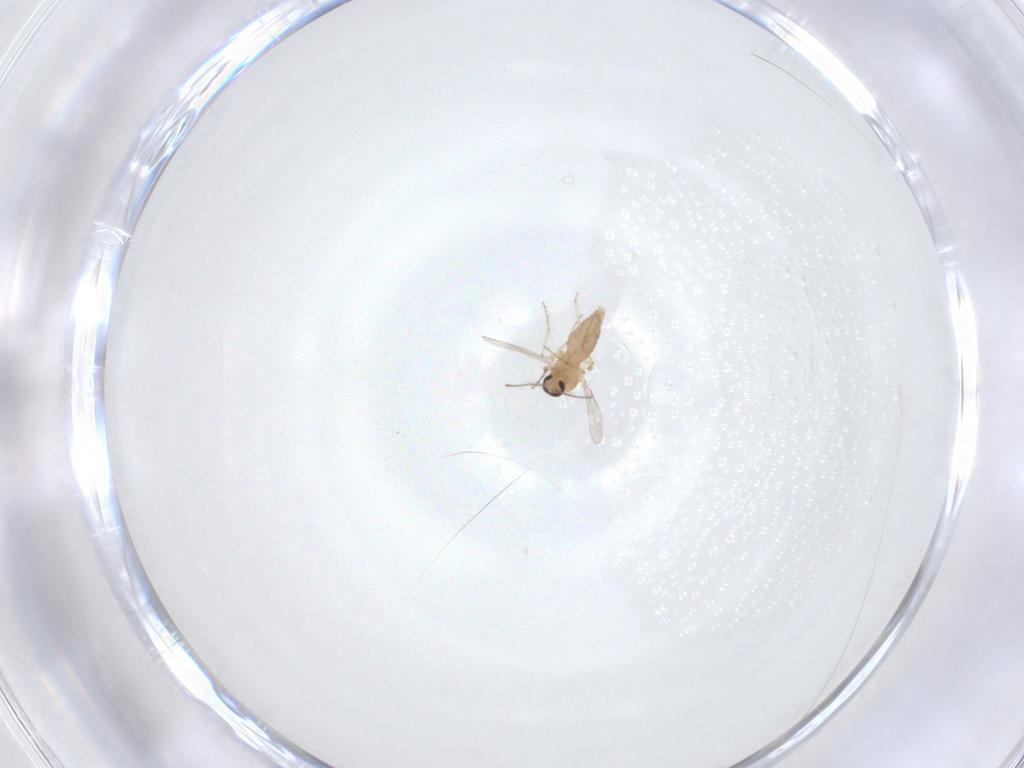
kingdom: Animalia
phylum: Arthropoda
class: Insecta
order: Diptera
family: Ceratopogonidae
